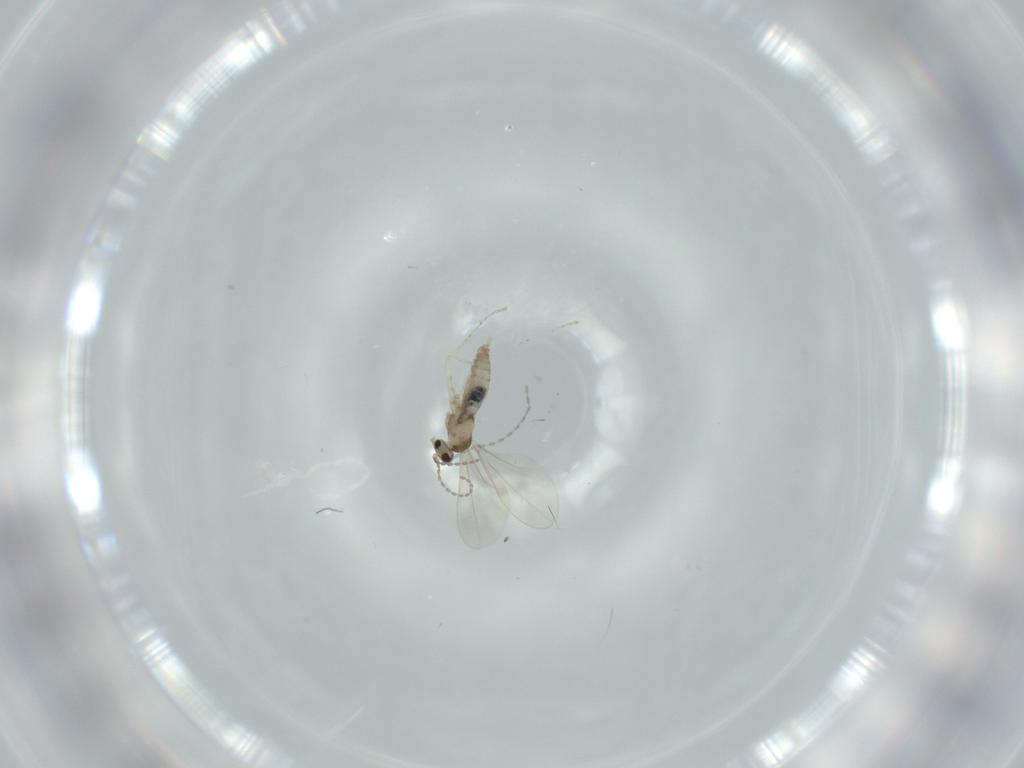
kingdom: Animalia
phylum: Arthropoda
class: Insecta
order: Diptera
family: Cecidomyiidae
